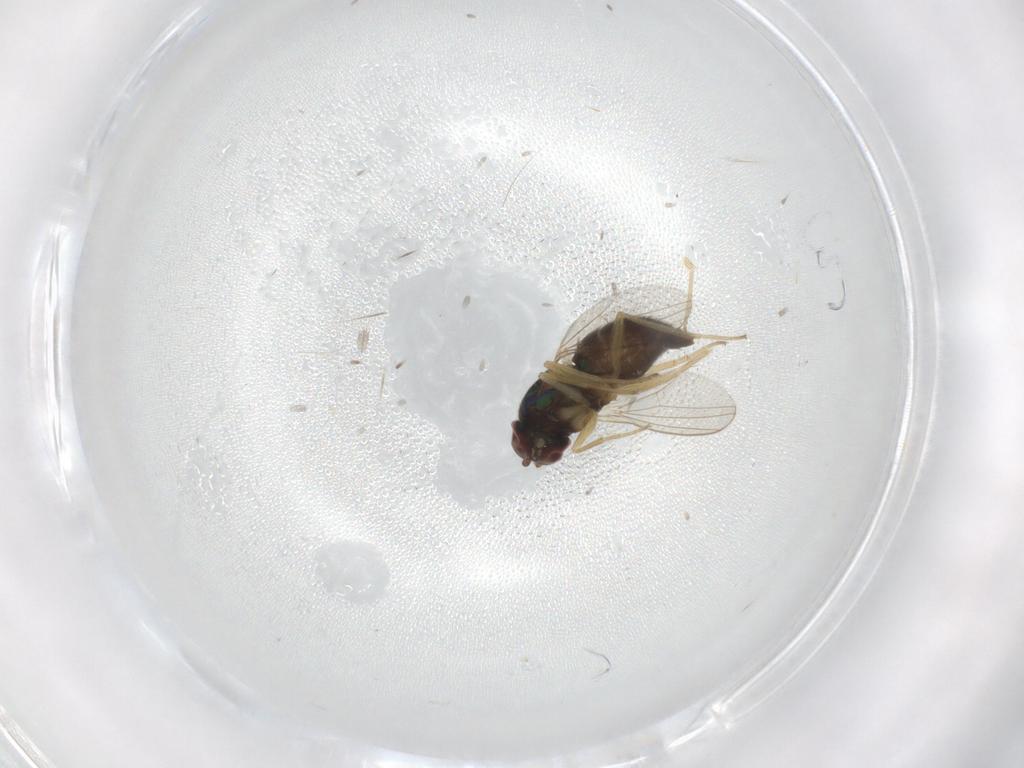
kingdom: Animalia
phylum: Arthropoda
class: Insecta
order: Diptera
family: Dolichopodidae
